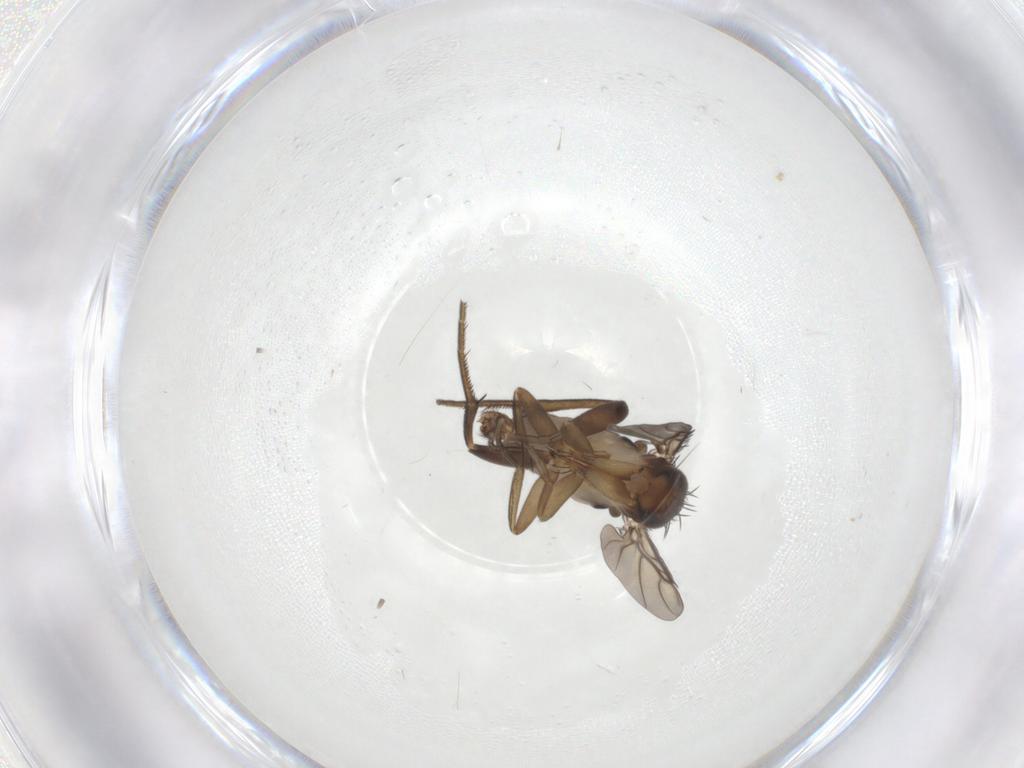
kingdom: Animalia
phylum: Arthropoda
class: Insecta
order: Diptera
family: Phoridae
